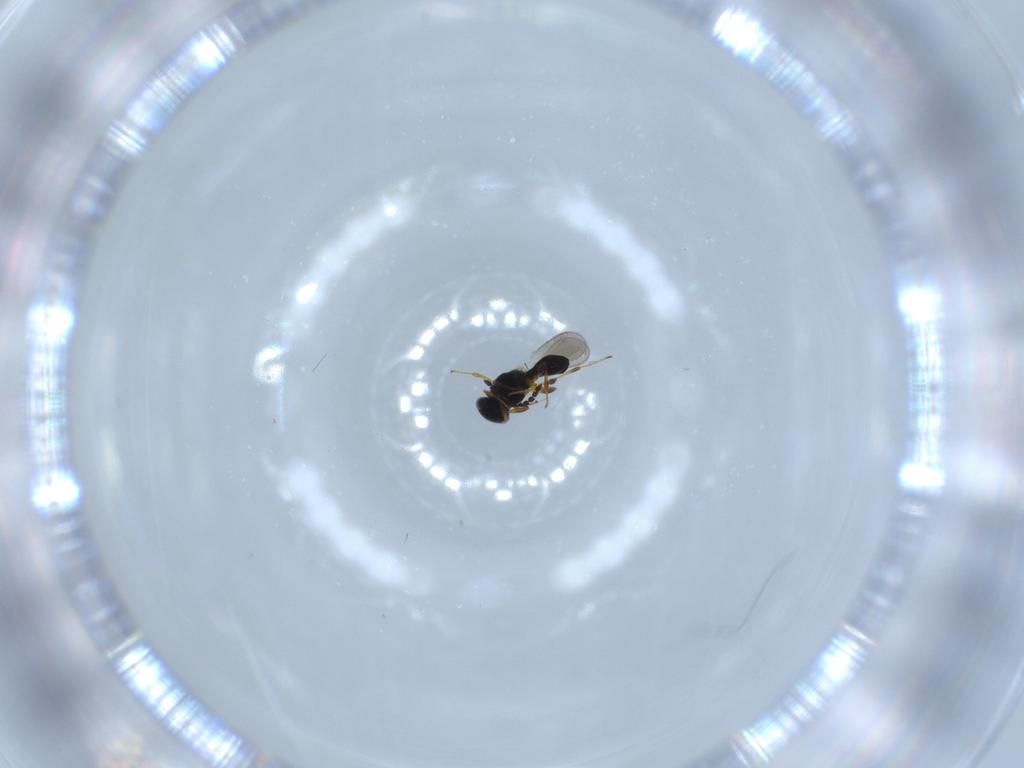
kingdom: Animalia
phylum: Arthropoda
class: Insecta
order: Hymenoptera
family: Platygastridae
